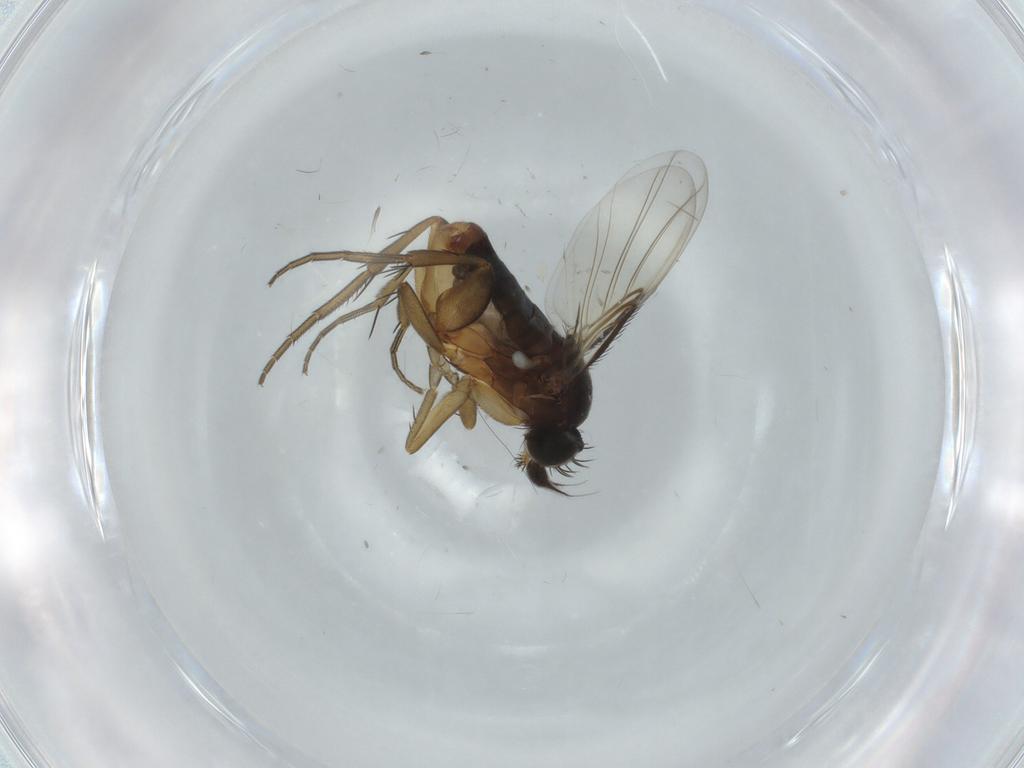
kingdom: Animalia
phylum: Arthropoda
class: Insecta
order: Diptera
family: Phoridae
